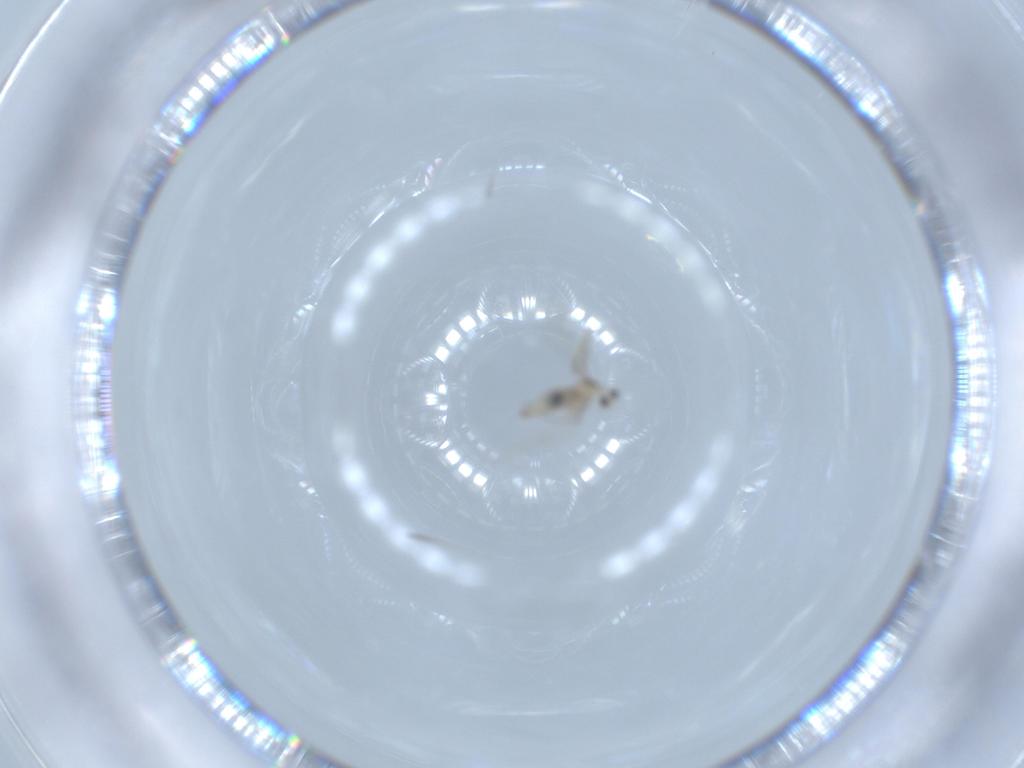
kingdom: Animalia
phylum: Arthropoda
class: Insecta
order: Diptera
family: Cecidomyiidae
